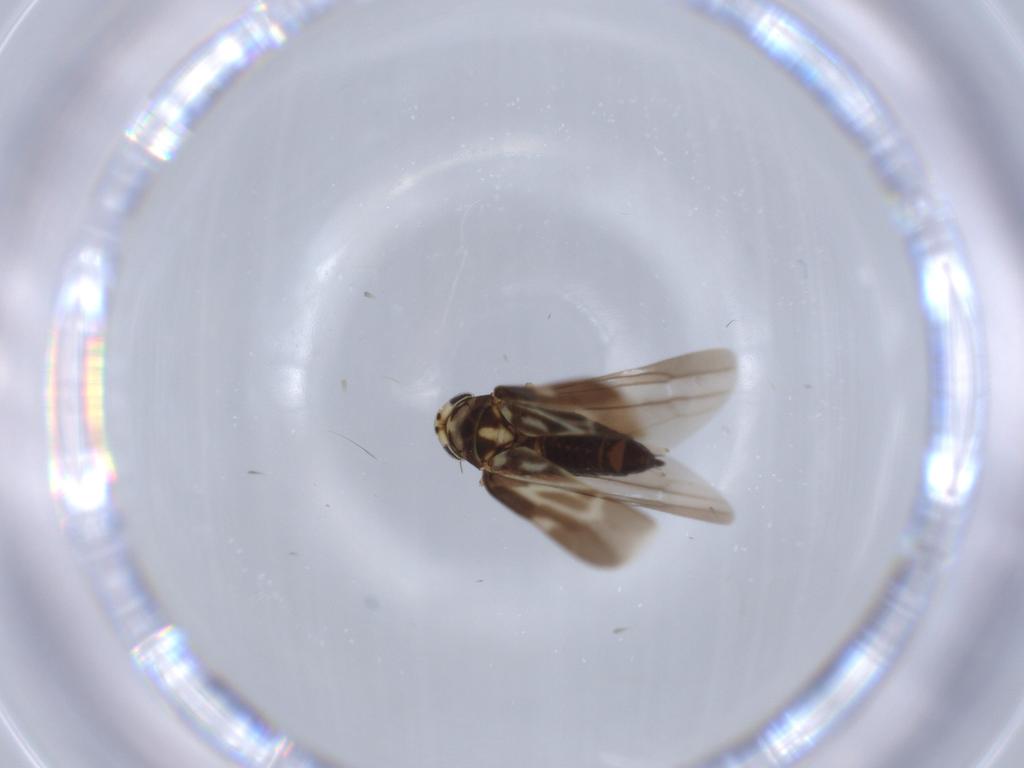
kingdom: Animalia
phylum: Arthropoda
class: Insecta
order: Hemiptera
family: Cicadellidae
